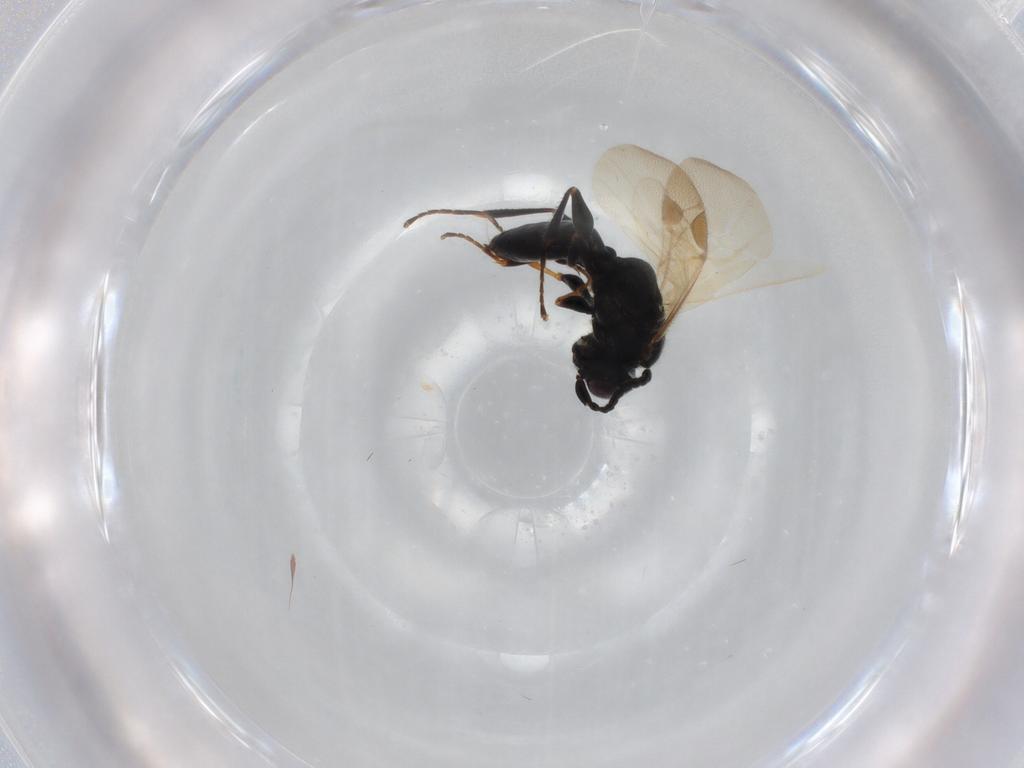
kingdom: Animalia
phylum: Arthropoda
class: Insecta
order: Hymenoptera
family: Dryinidae
